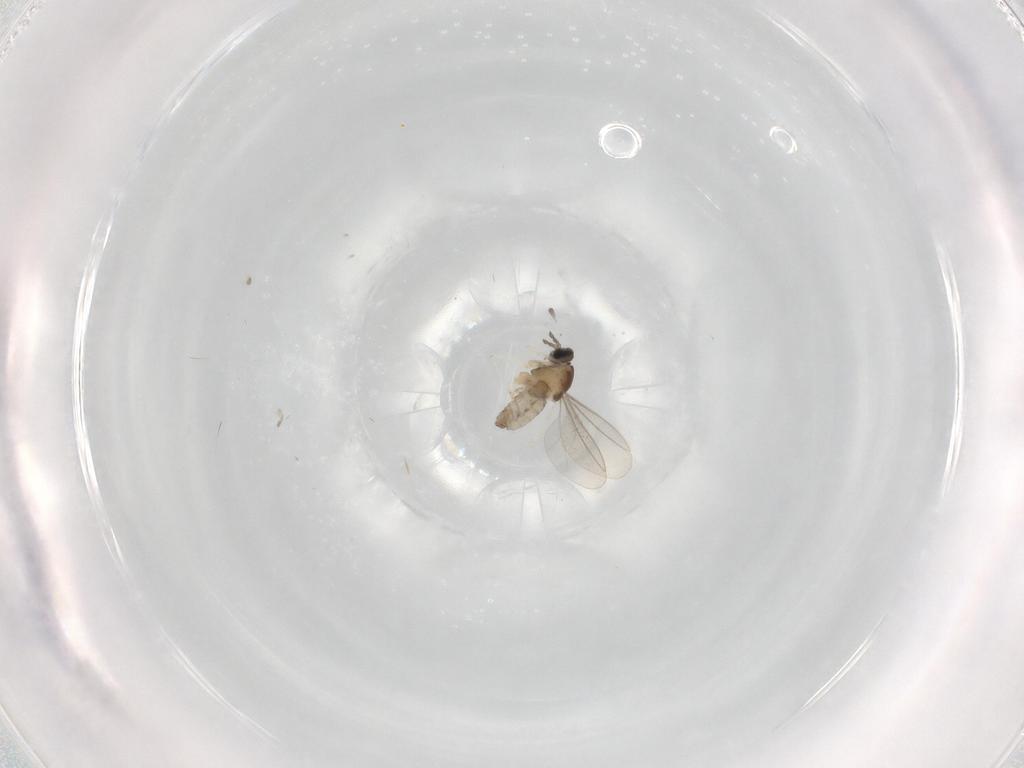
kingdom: Animalia
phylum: Arthropoda
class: Insecta
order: Diptera
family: Cecidomyiidae
